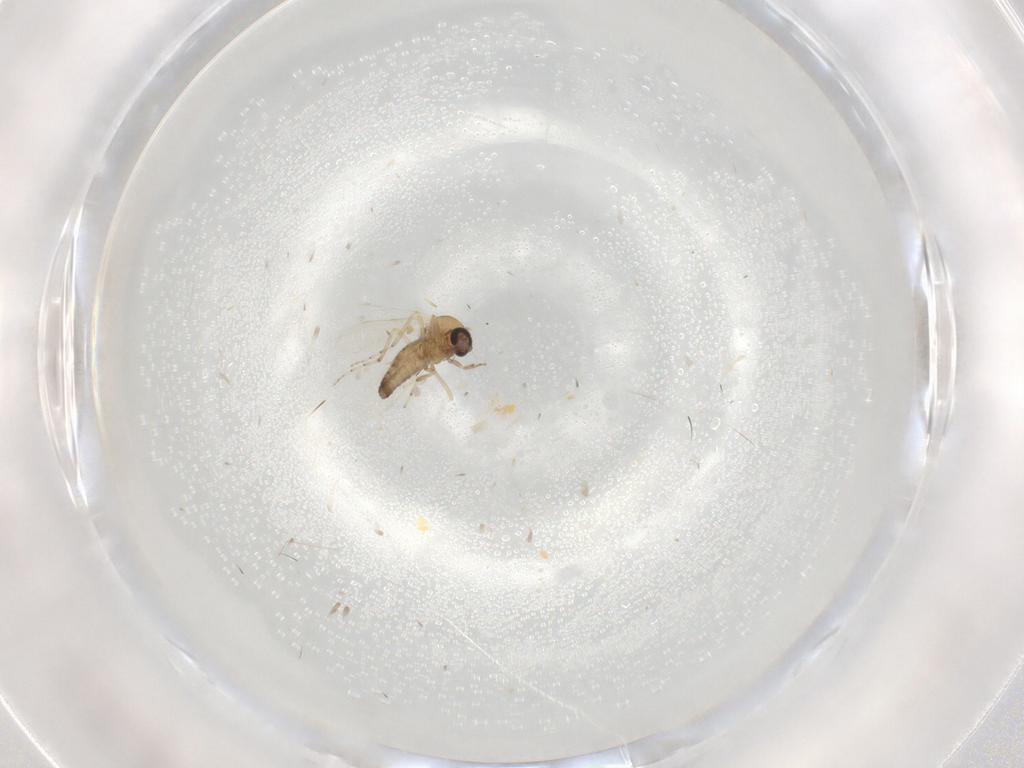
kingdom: Animalia
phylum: Arthropoda
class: Insecta
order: Diptera
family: Ceratopogonidae
